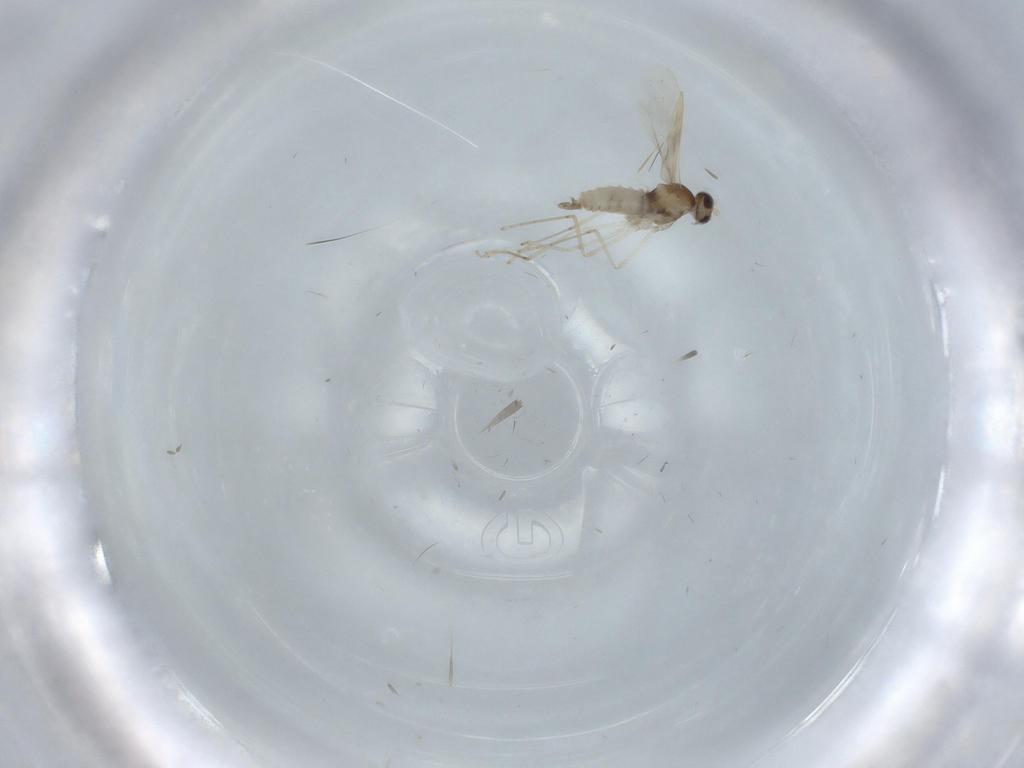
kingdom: Animalia
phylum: Arthropoda
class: Insecta
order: Diptera
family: Cecidomyiidae
